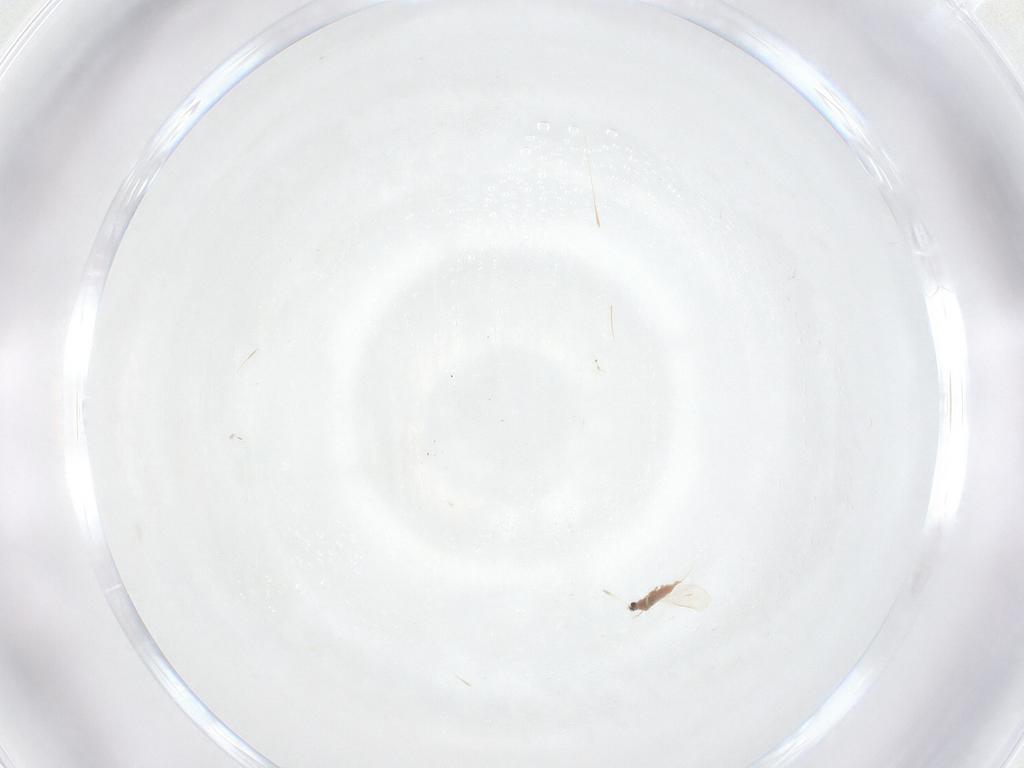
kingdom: Animalia
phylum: Arthropoda
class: Insecta
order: Hemiptera
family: Diaspididae
